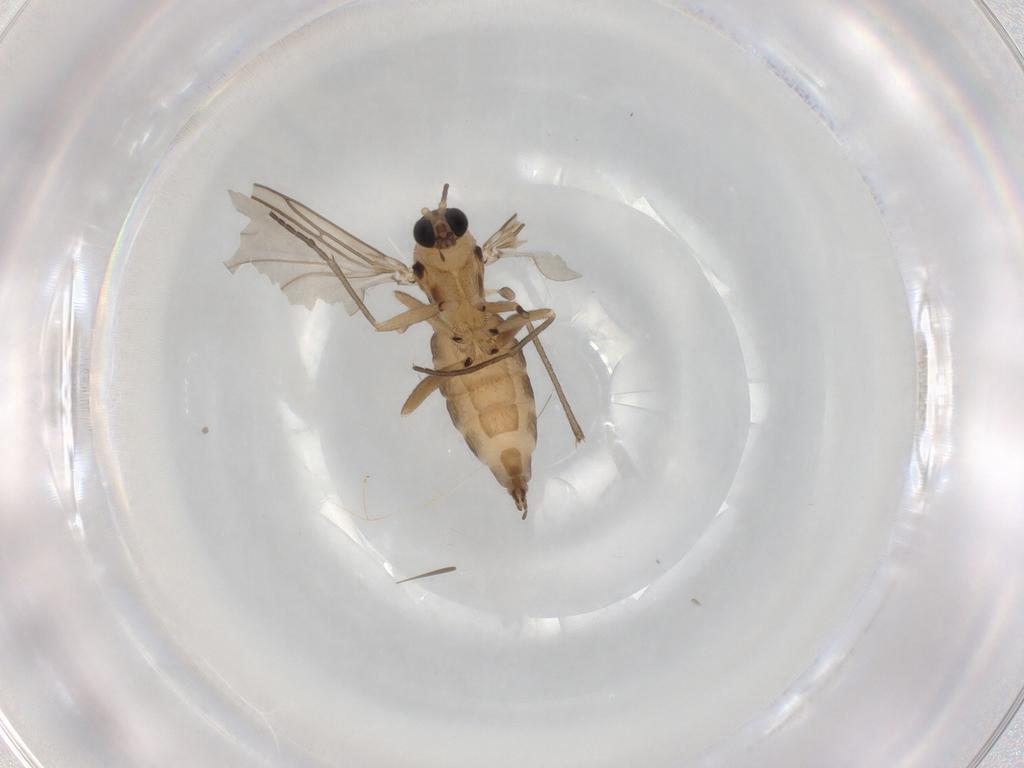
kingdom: Animalia
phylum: Arthropoda
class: Insecta
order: Diptera
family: Sciaridae
